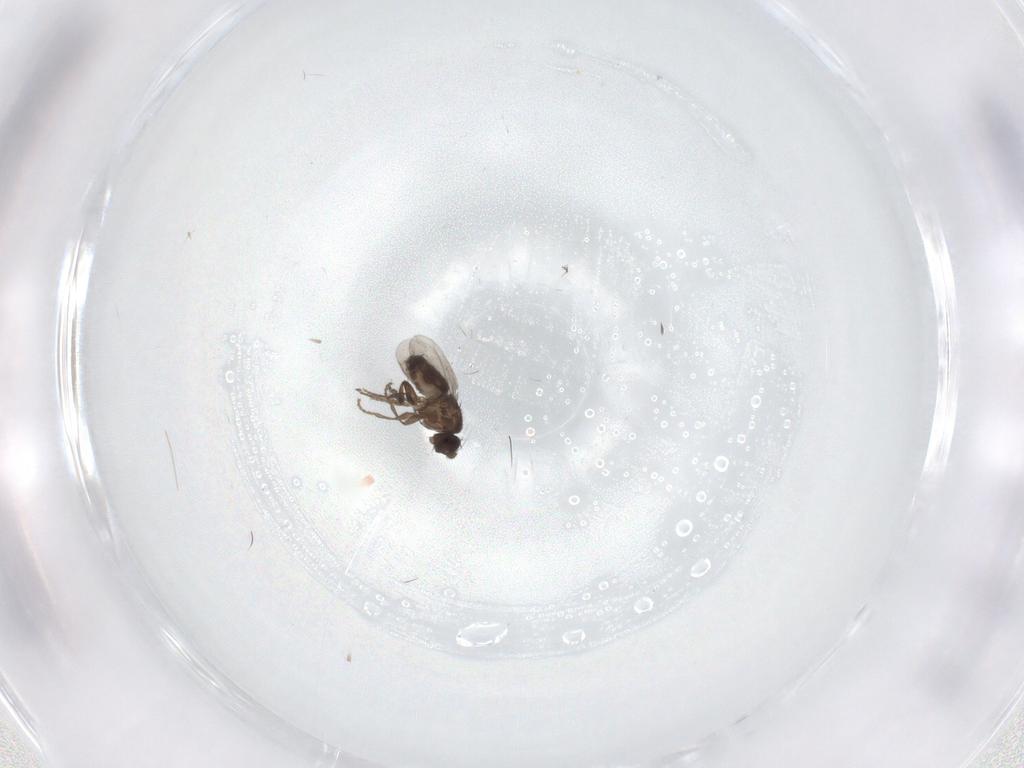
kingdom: Animalia
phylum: Arthropoda
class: Insecta
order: Diptera
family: Sphaeroceridae
